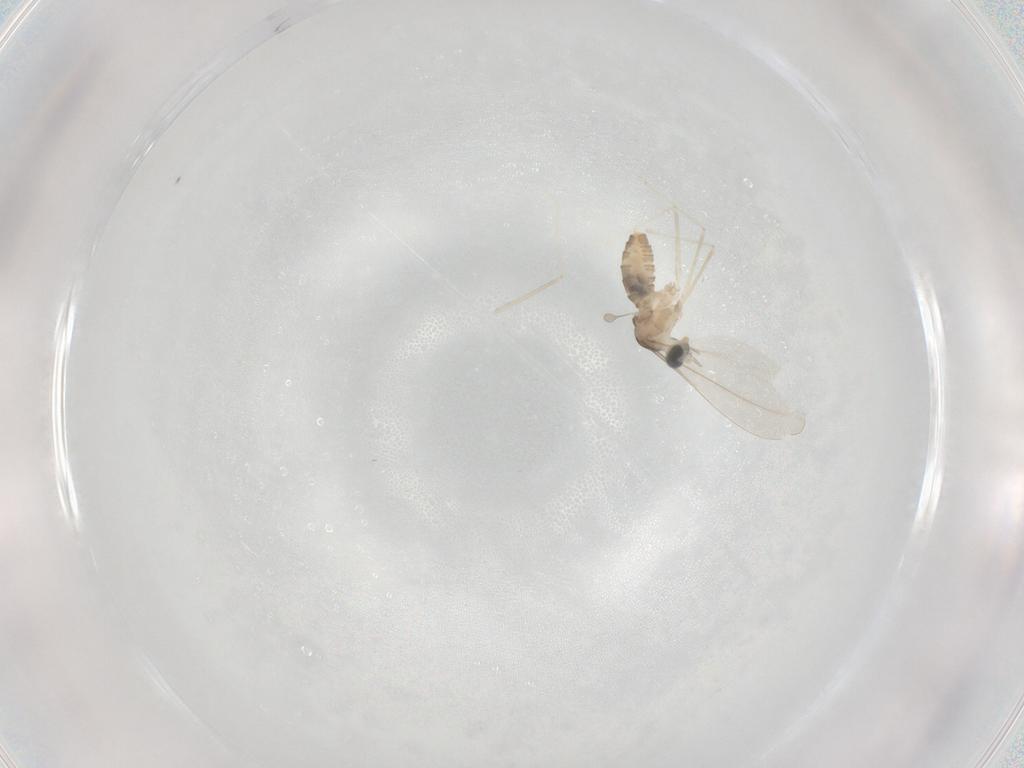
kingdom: Animalia
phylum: Arthropoda
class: Insecta
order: Diptera
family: Cecidomyiidae
